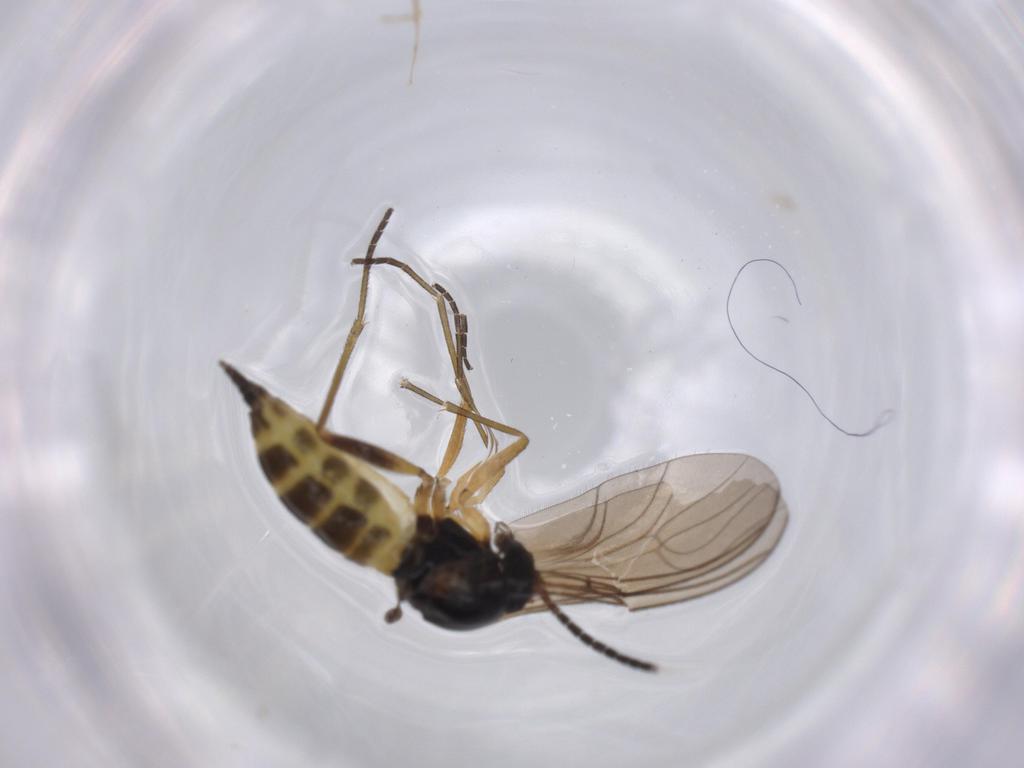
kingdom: Animalia
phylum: Arthropoda
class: Insecta
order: Diptera
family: Sciaridae
